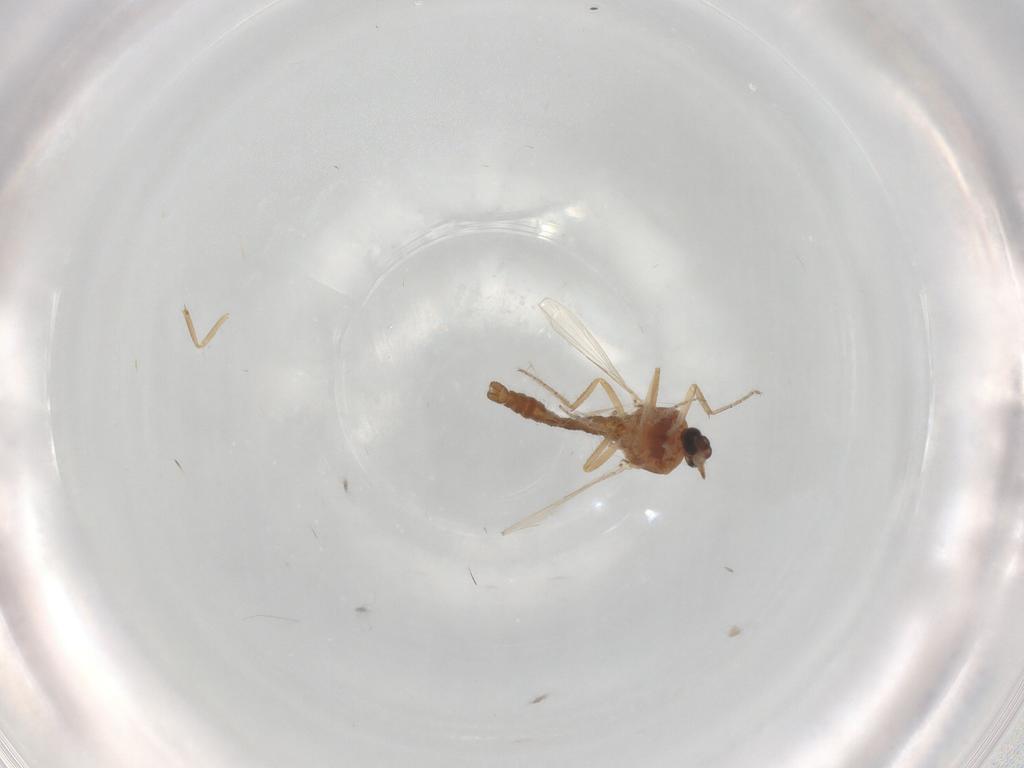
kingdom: Animalia
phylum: Arthropoda
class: Insecta
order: Diptera
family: Ceratopogonidae
